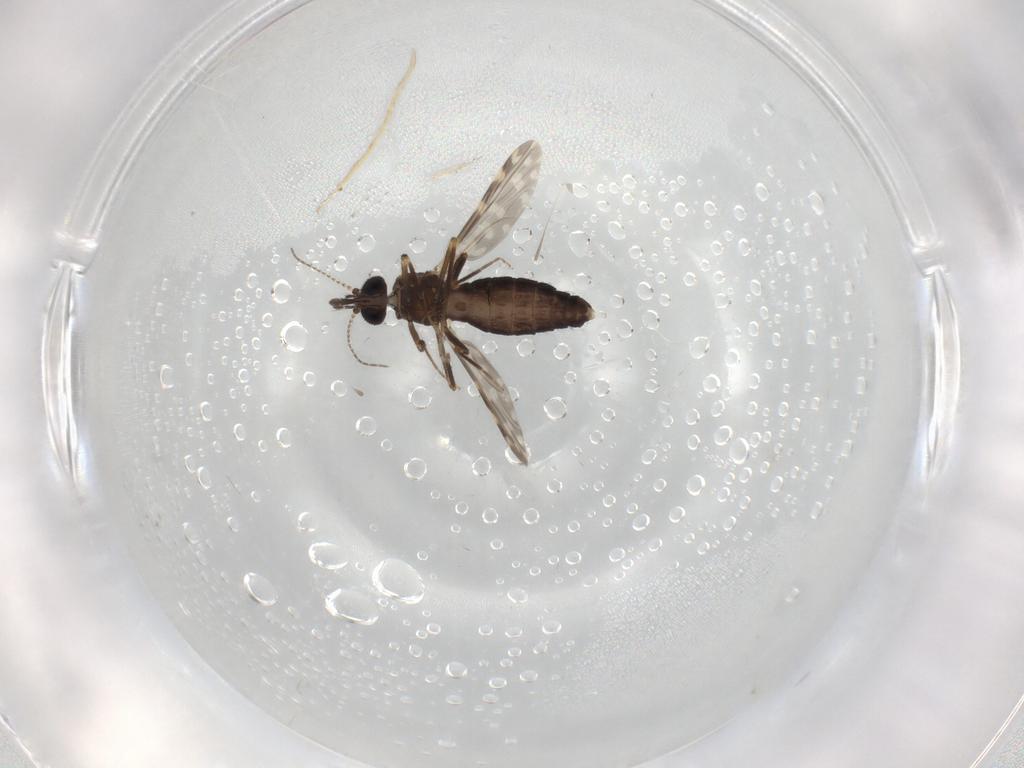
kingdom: Animalia
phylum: Arthropoda
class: Insecta
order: Diptera
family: Ceratopogonidae
